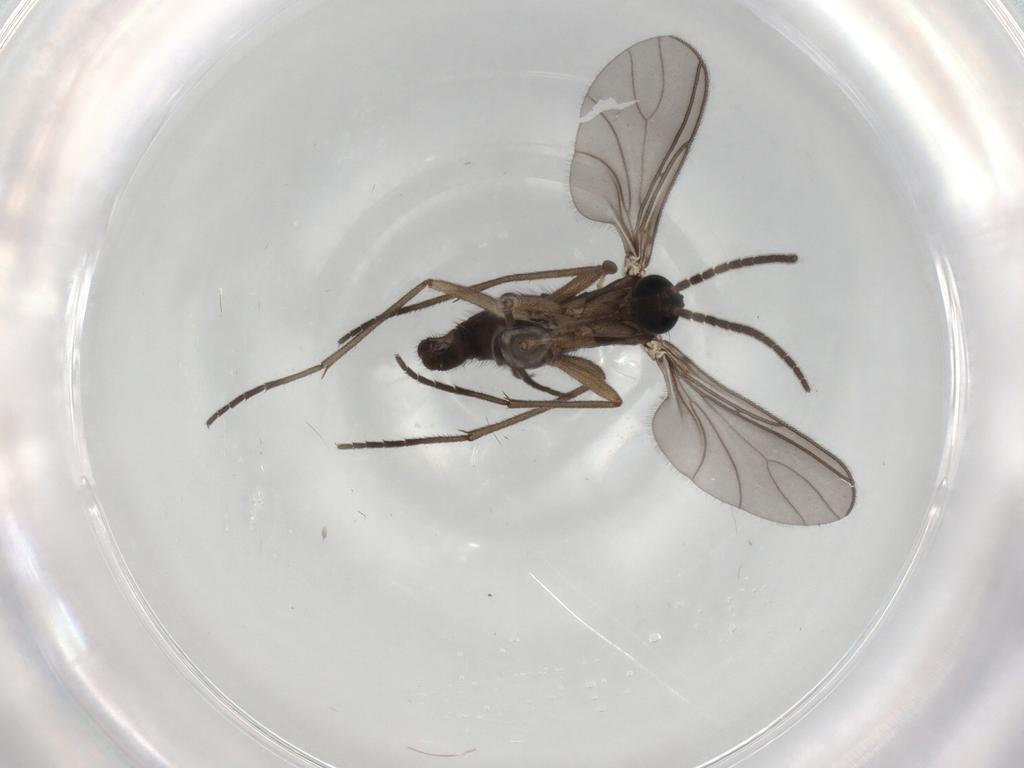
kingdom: Animalia
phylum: Arthropoda
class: Insecta
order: Diptera
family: Sciaridae
